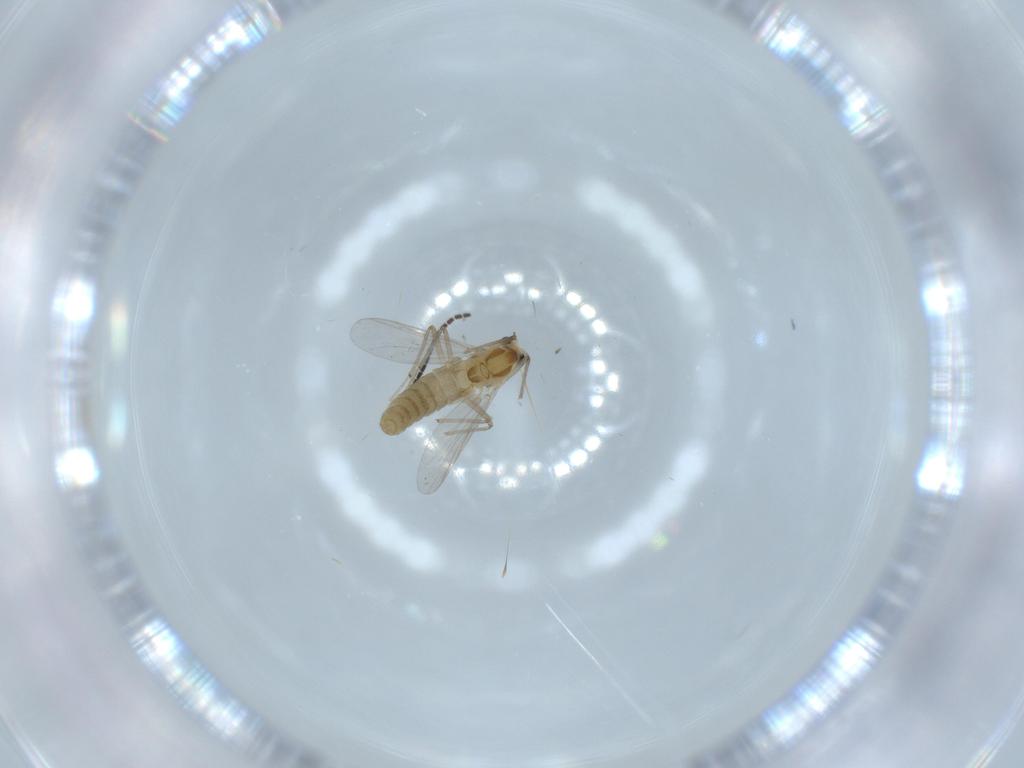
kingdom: Animalia
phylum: Arthropoda
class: Insecta
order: Diptera
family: Chironomidae
